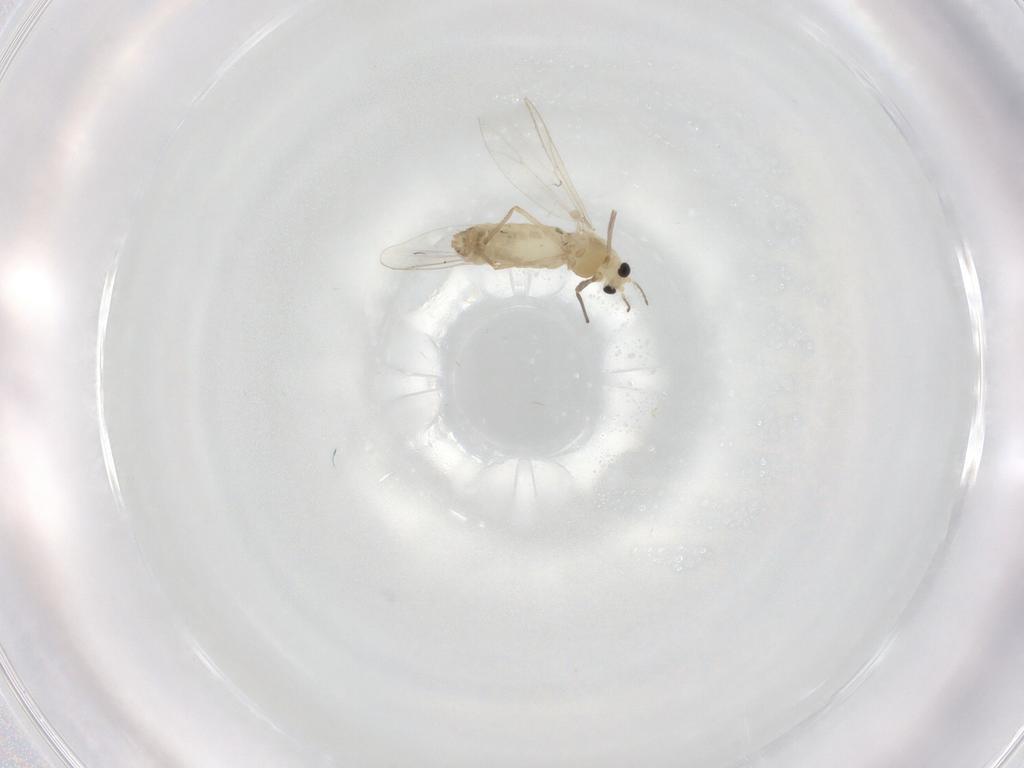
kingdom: Animalia
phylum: Arthropoda
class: Insecta
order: Diptera
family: Chironomidae
